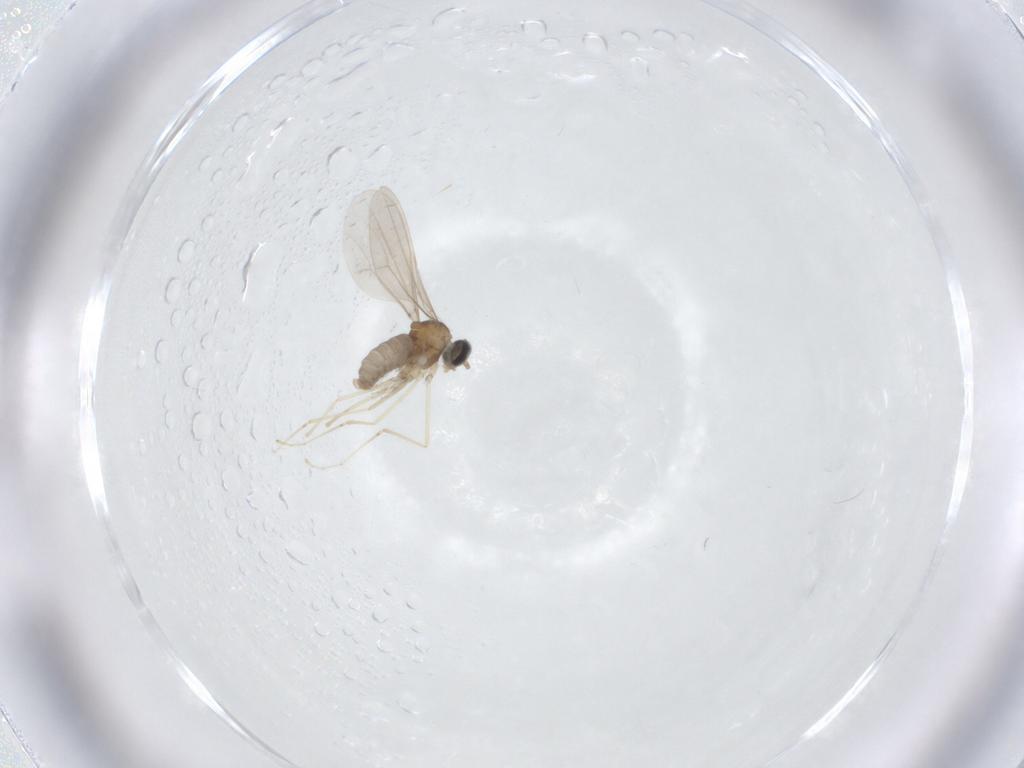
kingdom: Animalia
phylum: Arthropoda
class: Insecta
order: Diptera
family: Cecidomyiidae
